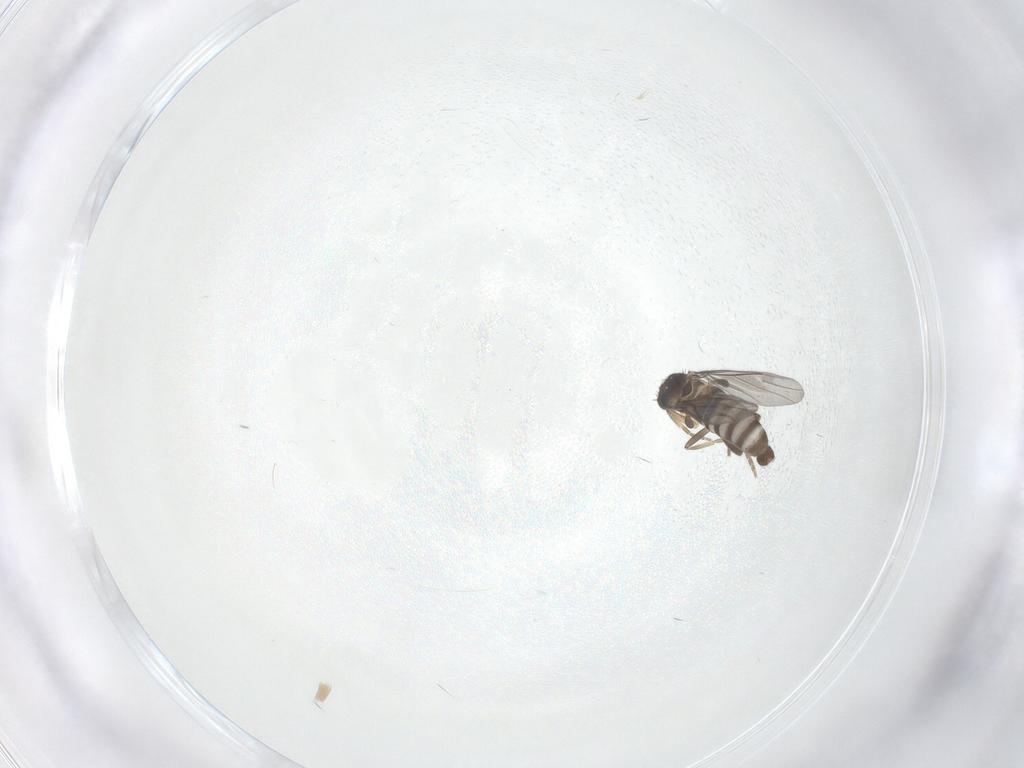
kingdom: Animalia
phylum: Arthropoda
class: Insecta
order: Diptera
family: Phoridae
